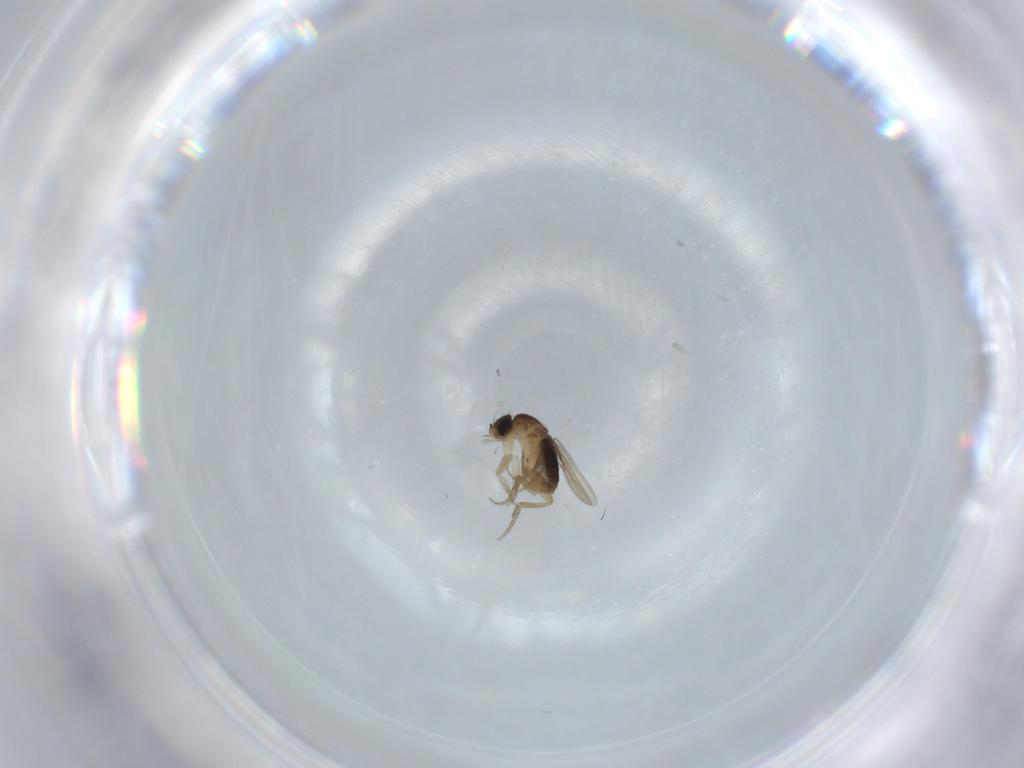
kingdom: Animalia
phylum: Arthropoda
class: Insecta
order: Diptera
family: Phoridae
